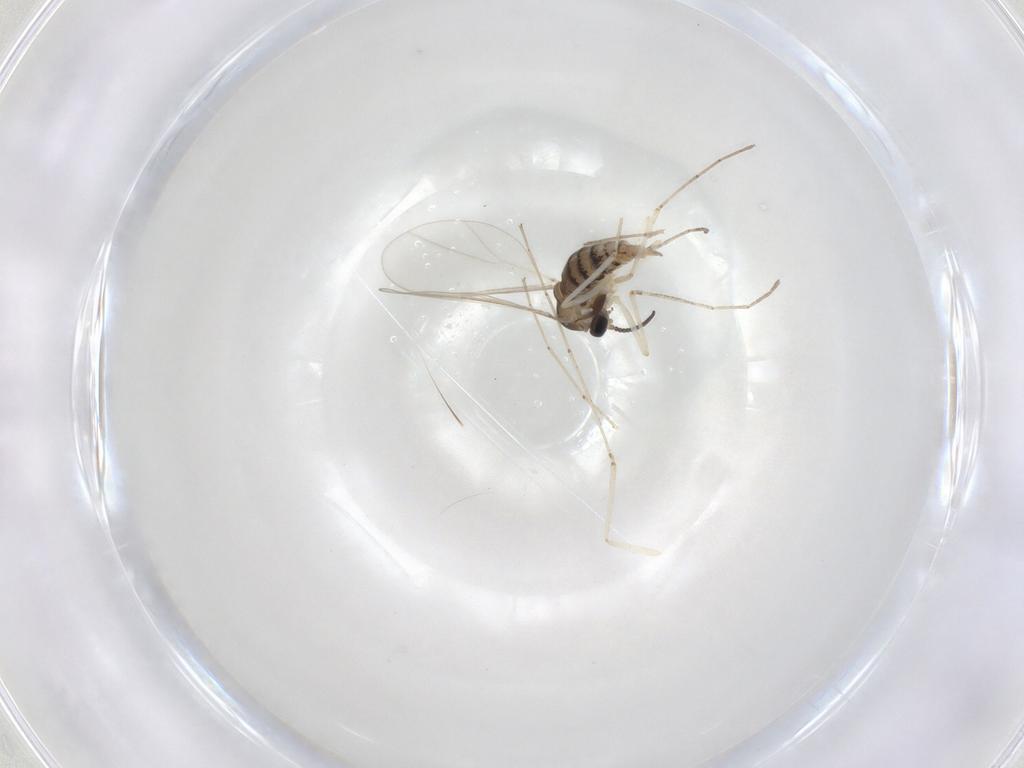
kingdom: Animalia
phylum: Arthropoda
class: Insecta
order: Diptera
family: Cecidomyiidae
